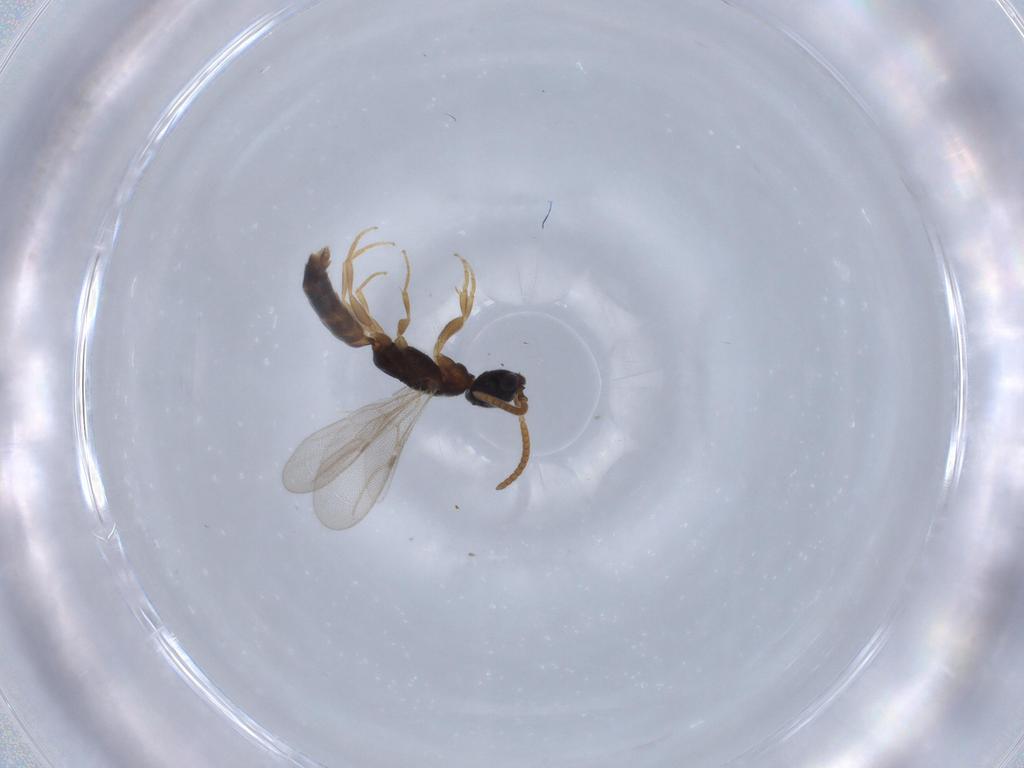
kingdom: Animalia
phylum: Arthropoda
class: Insecta
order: Hymenoptera
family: Bethylidae
